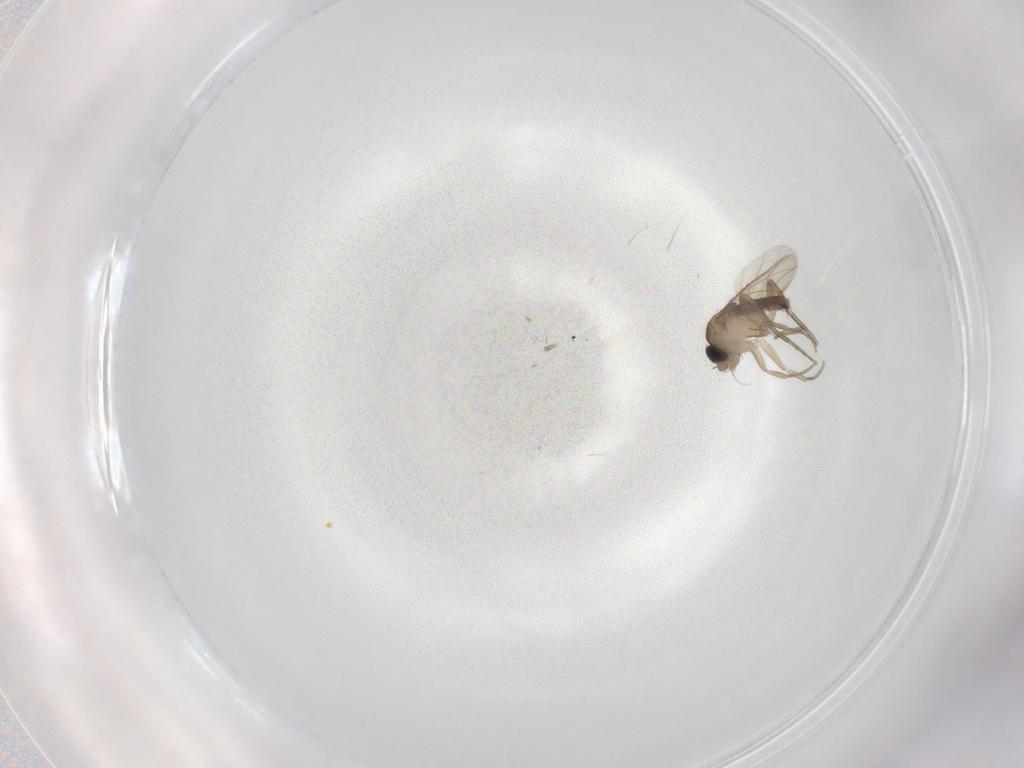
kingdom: Animalia
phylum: Arthropoda
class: Insecta
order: Diptera
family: Phoridae
